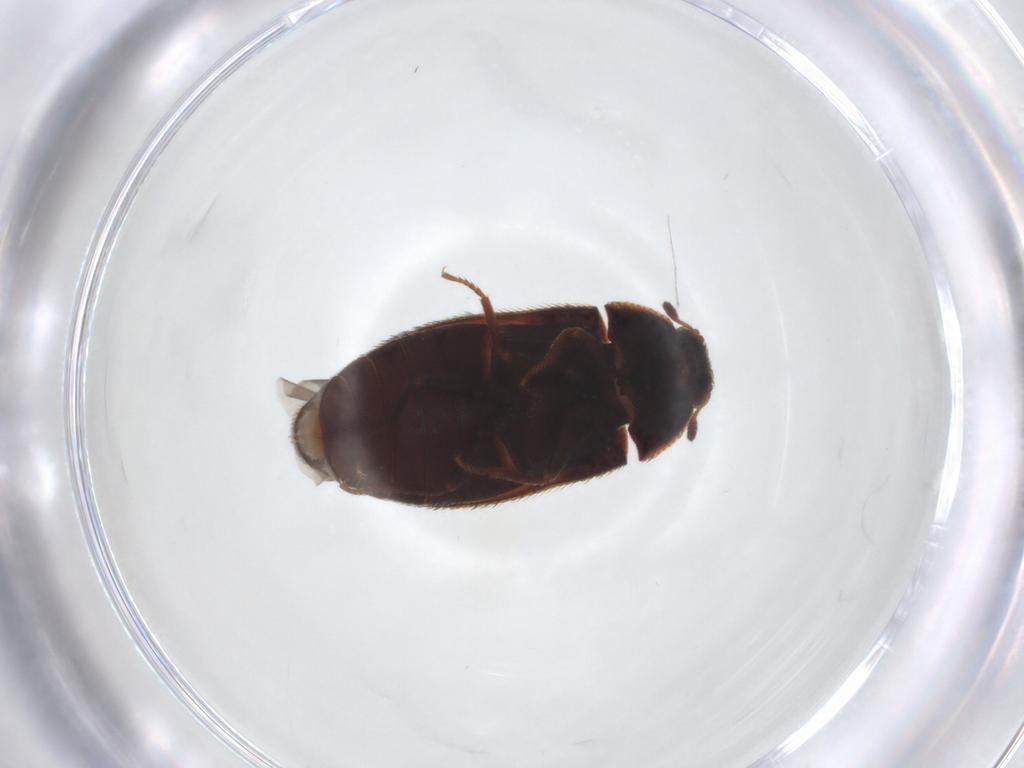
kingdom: Animalia
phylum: Arthropoda
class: Insecta
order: Coleoptera
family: Dermestidae
